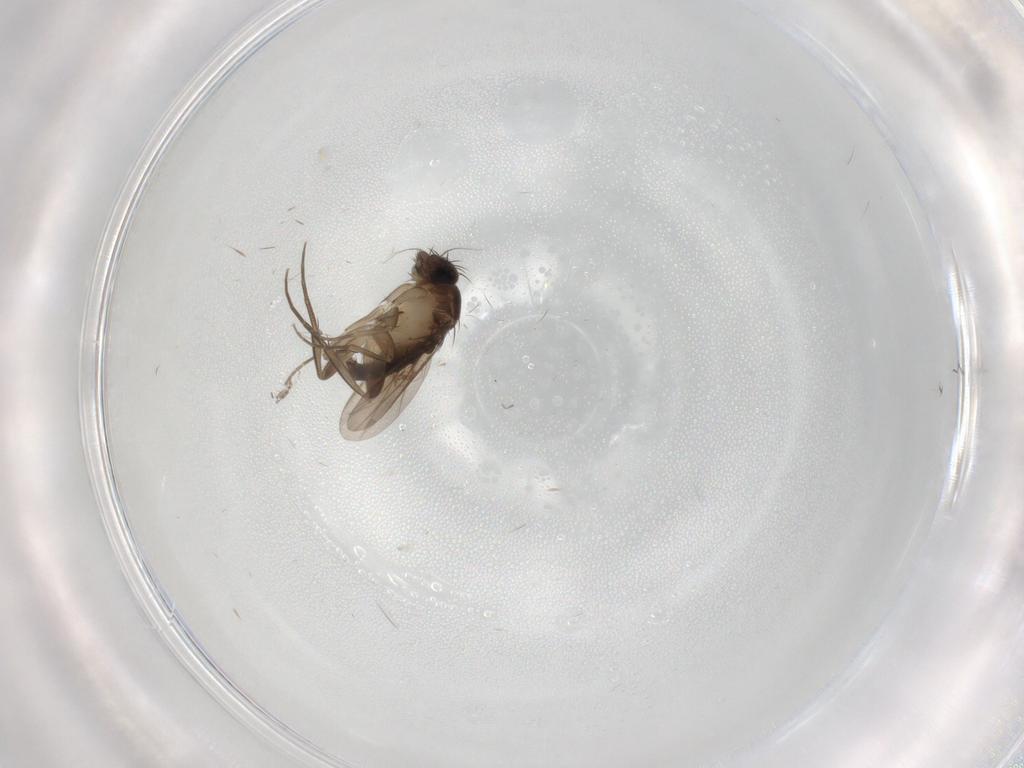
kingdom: Animalia
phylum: Arthropoda
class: Insecta
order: Diptera
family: Phoridae
